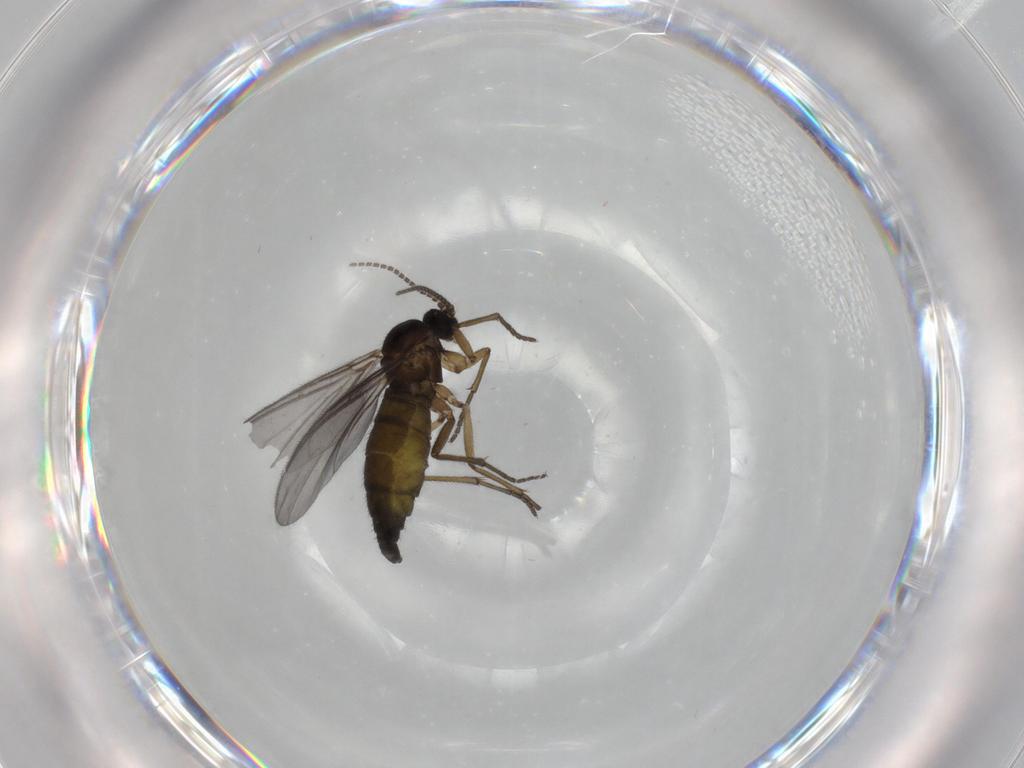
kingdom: Animalia
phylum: Arthropoda
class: Insecta
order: Diptera
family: Sciaridae
